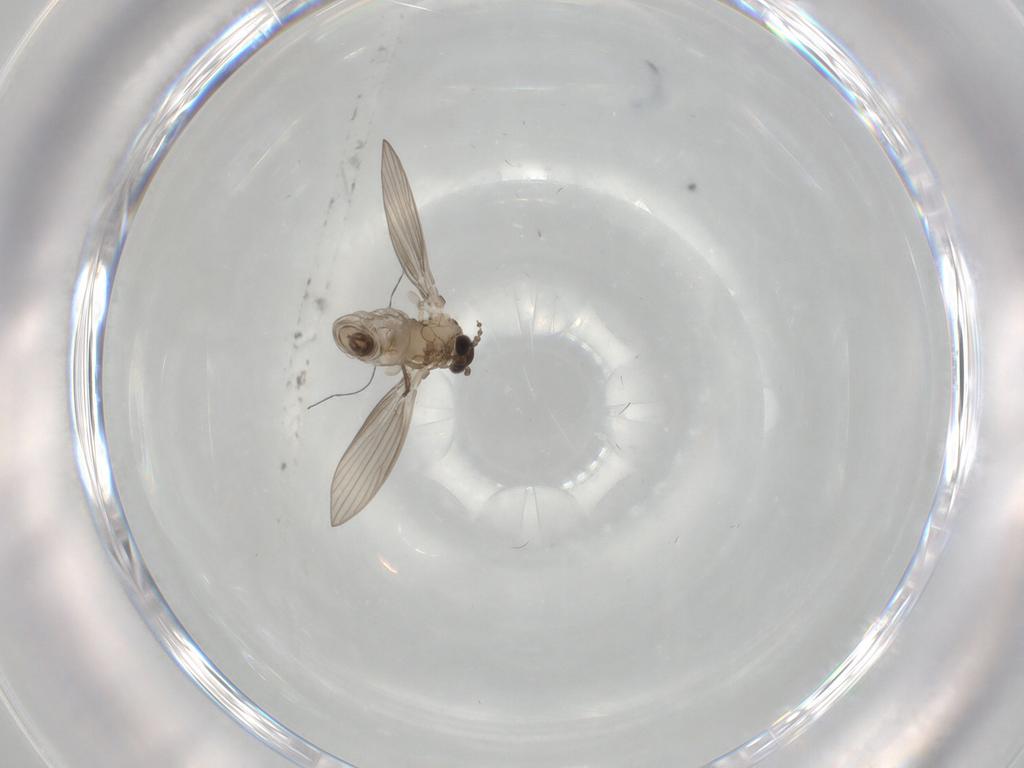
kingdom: Animalia
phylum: Arthropoda
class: Insecta
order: Diptera
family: Psychodidae
